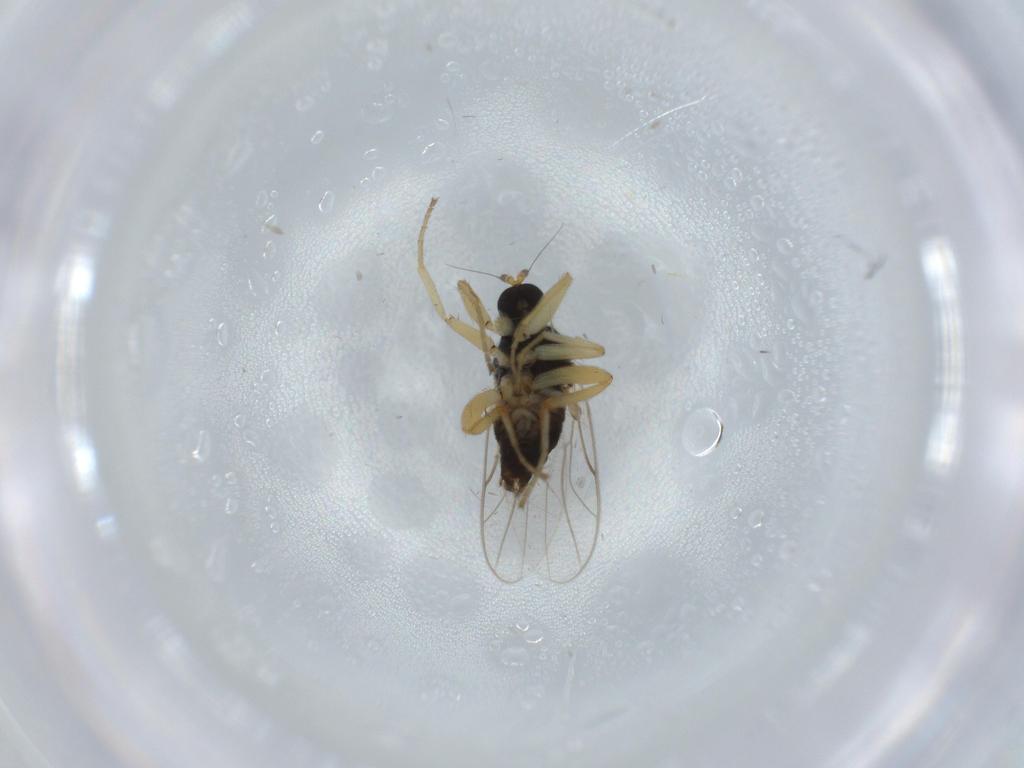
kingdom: Animalia
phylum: Arthropoda
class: Insecta
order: Diptera
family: Hybotidae
